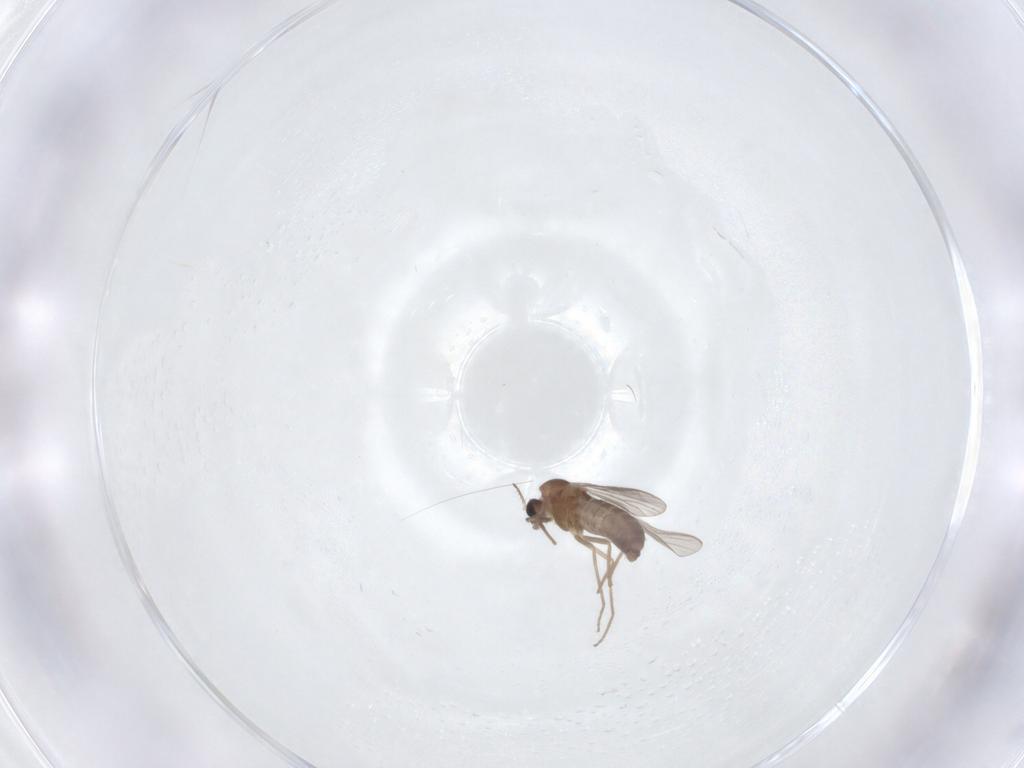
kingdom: Animalia
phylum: Arthropoda
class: Insecta
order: Diptera
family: Chironomidae
